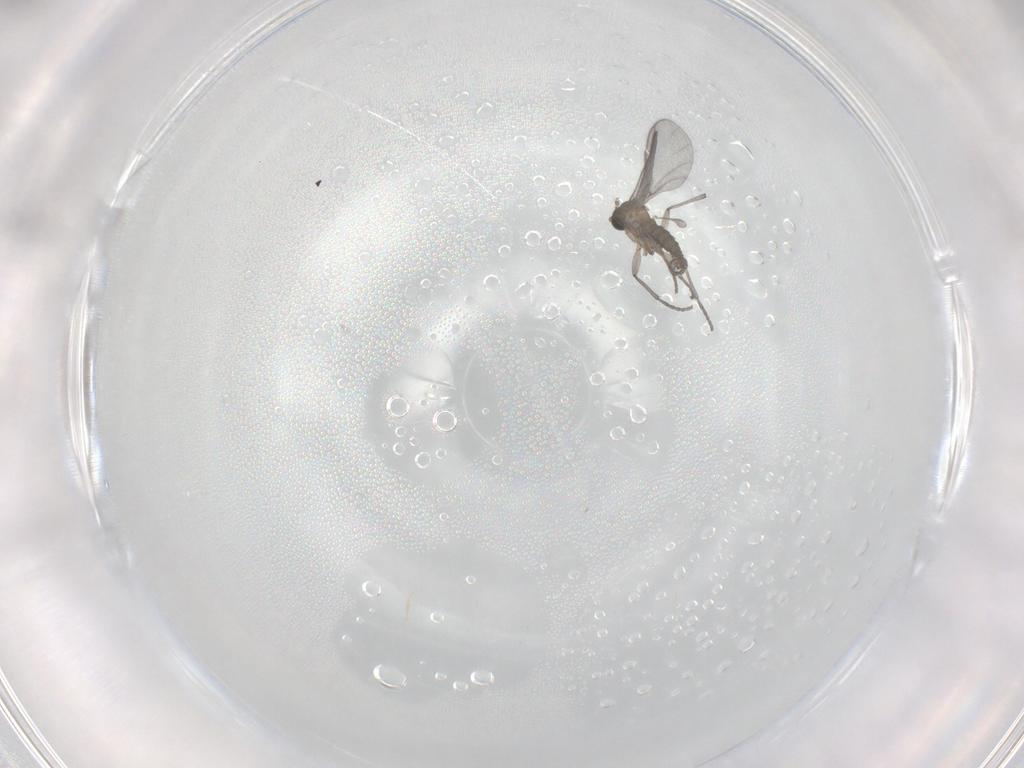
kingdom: Animalia
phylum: Arthropoda
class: Insecta
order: Diptera
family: Sciaridae
